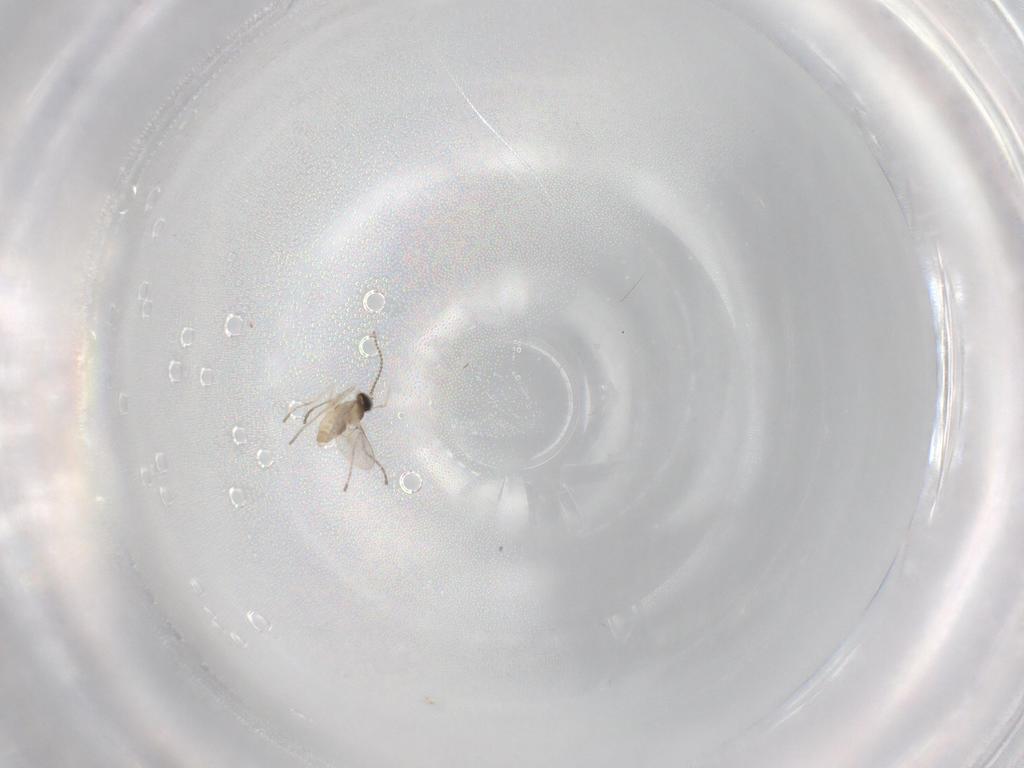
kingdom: Animalia
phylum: Arthropoda
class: Insecta
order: Diptera
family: Cecidomyiidae
